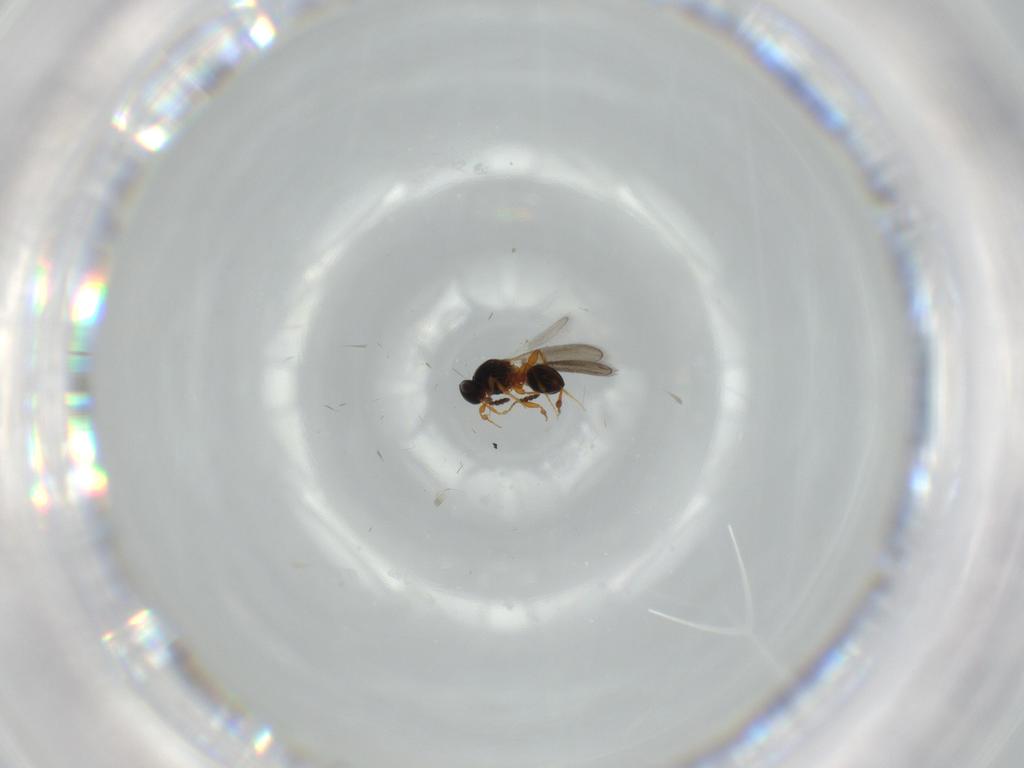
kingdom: Animalia
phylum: Arthropoda
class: Insecta
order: Hymenoptera
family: Platygastridae
